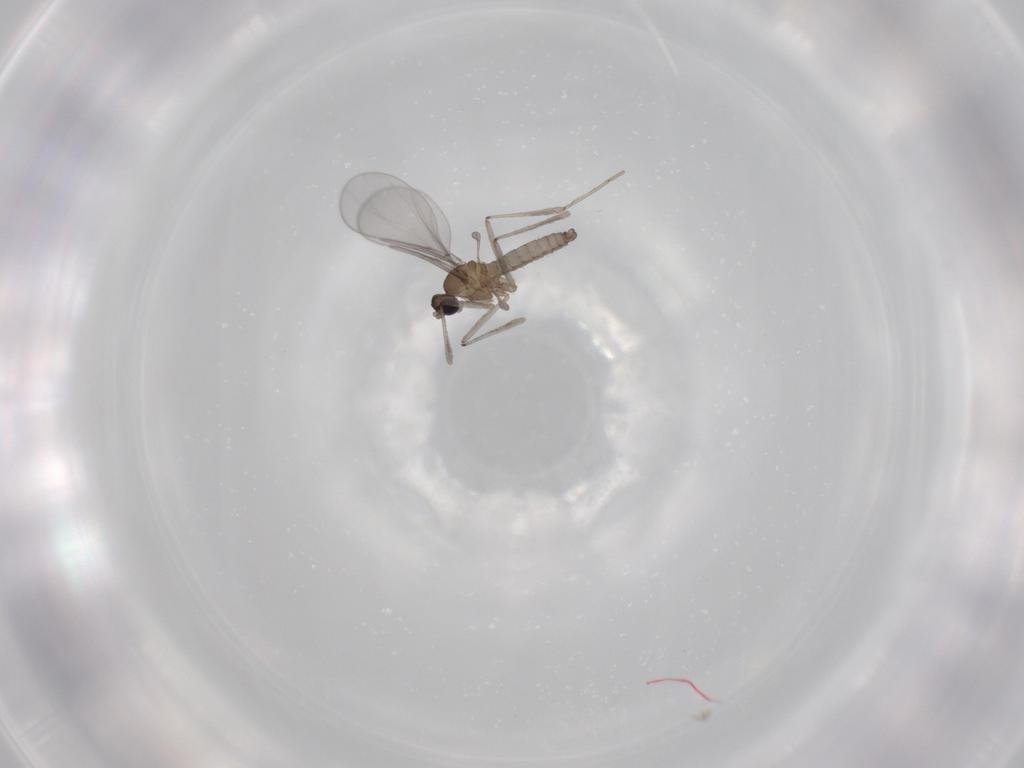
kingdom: Animalia
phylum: Arthropoda
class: Insecta
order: Diptera
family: Cecidomyiidae
